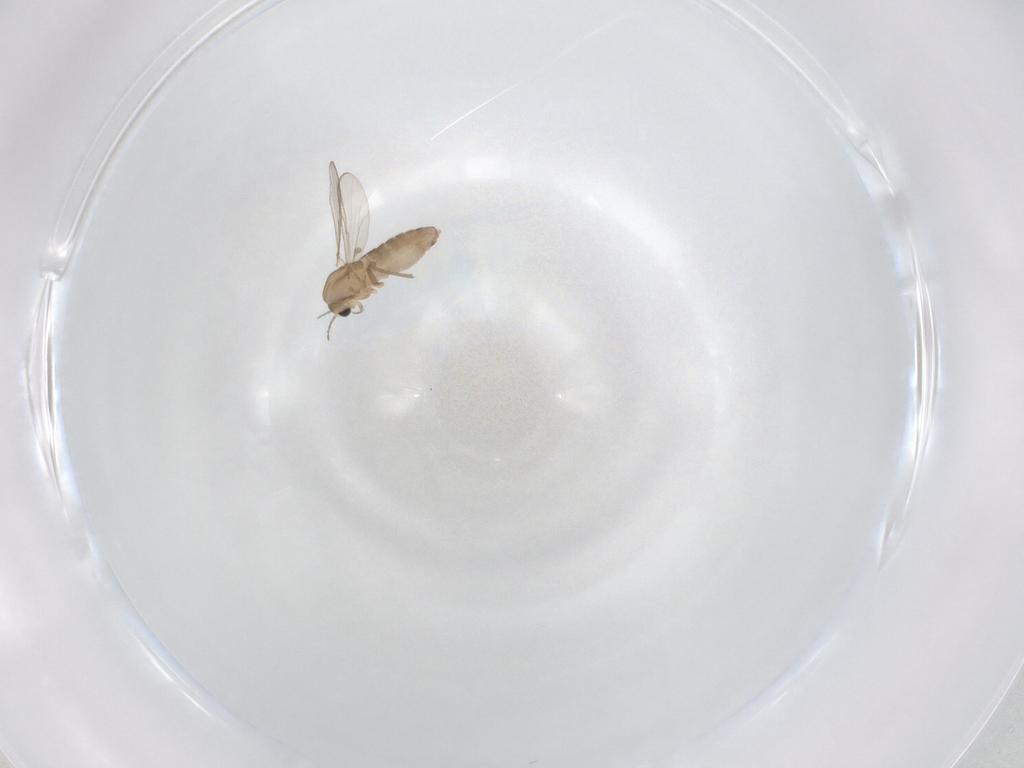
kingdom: Animalia
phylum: Arthropoda
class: Insecta
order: Diptera
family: Chironomidae
